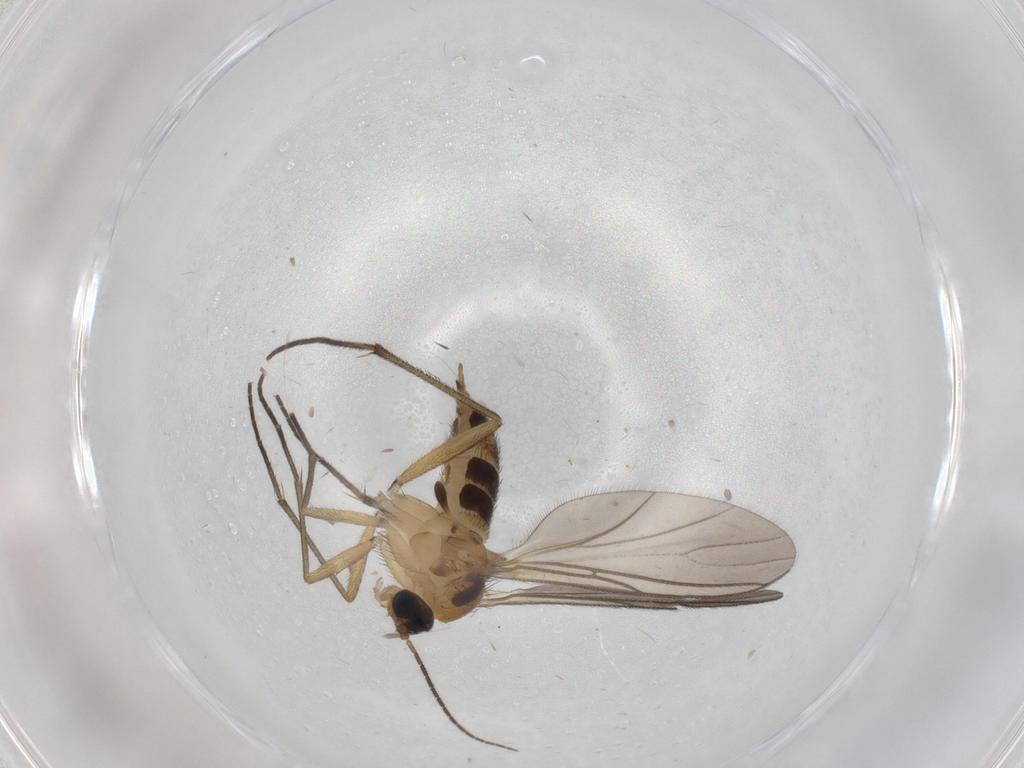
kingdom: Animalia
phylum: Arthropoda
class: Insecta
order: Diptera
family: Sciaridae
